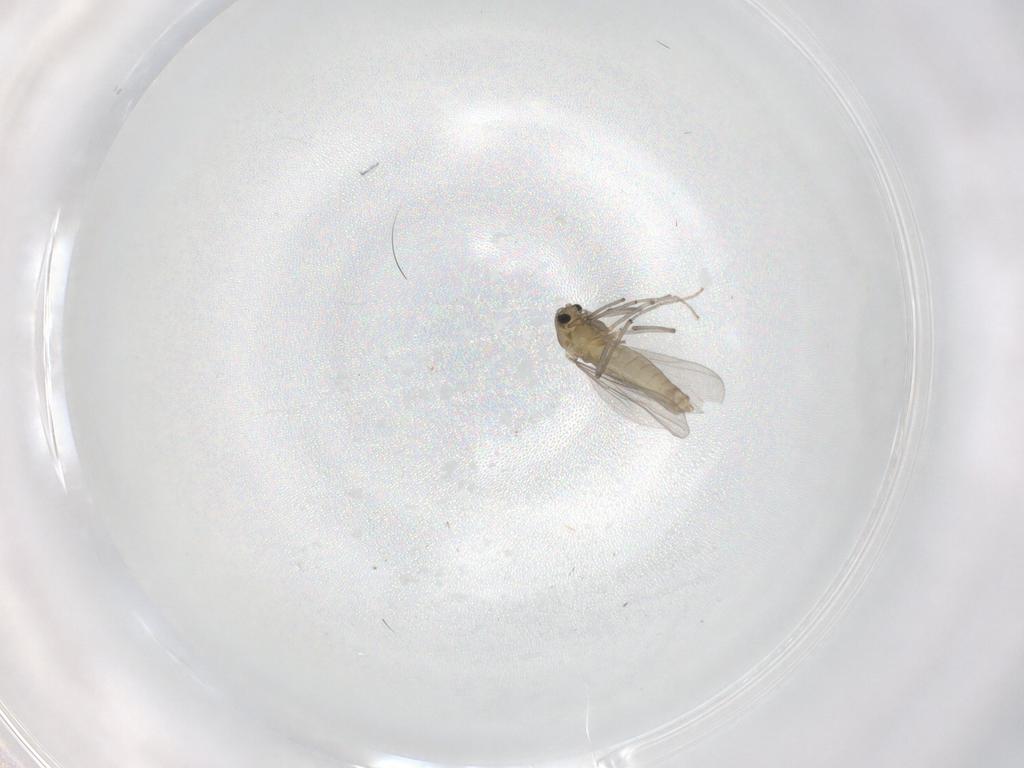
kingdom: Animalia
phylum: Arthropoda
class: Insecta
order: Diptera
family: Chironomidae
